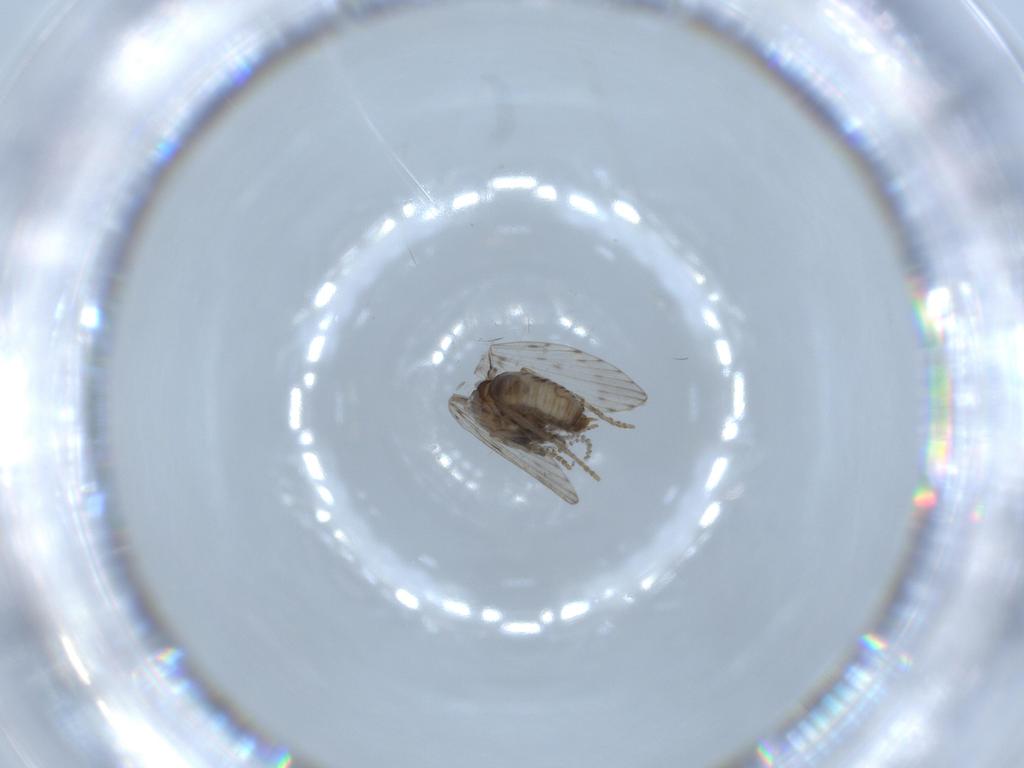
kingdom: Animalia
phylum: Arthropoda
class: Insecta
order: Diptera
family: Psychodidae
